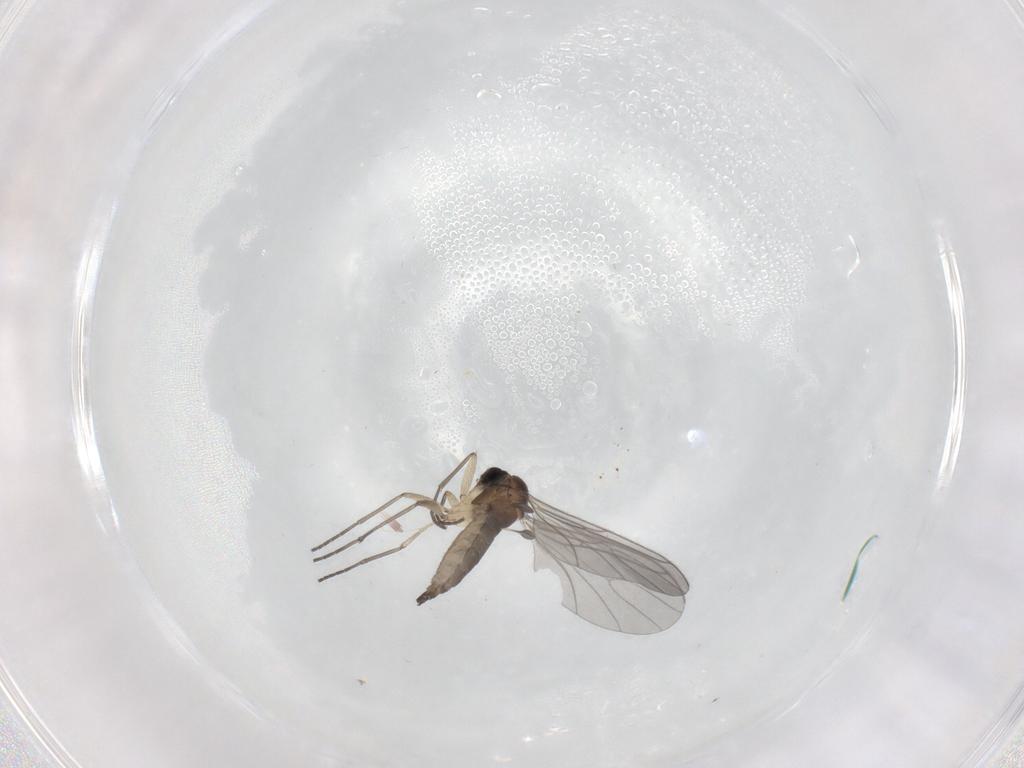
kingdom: Animalia
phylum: Arthropoda
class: Insecta
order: Diptera
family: Sciaridae
